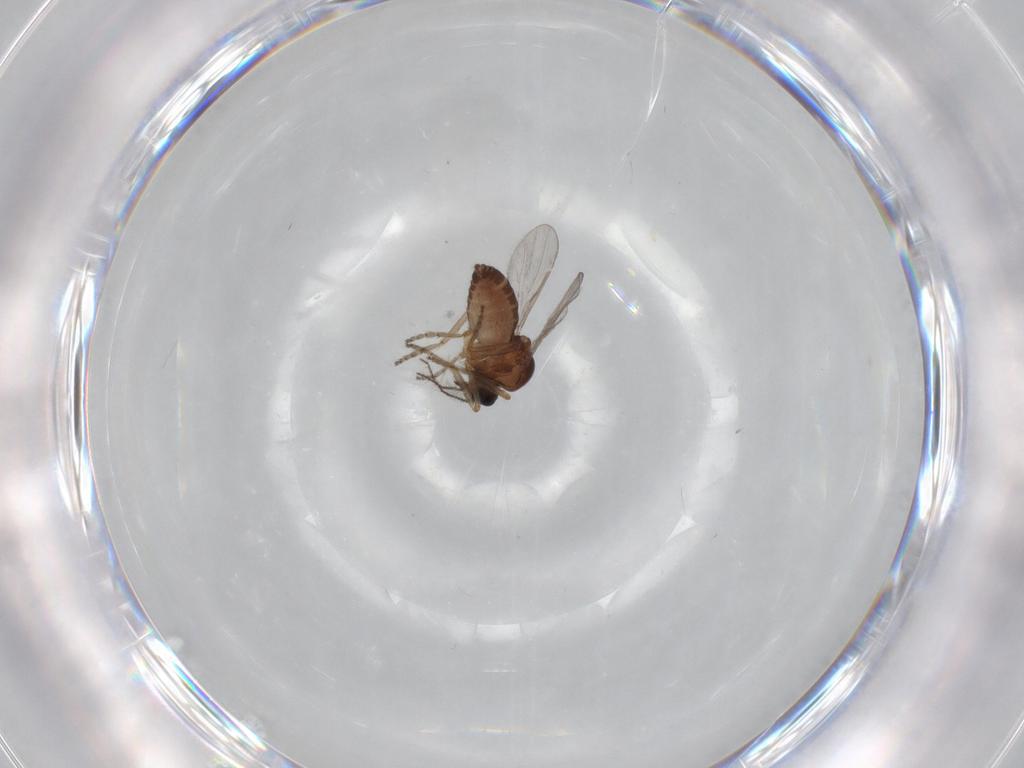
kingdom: Animalia
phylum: Arthropoda
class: Insecta
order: Diptera
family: Ceratopogonidae
